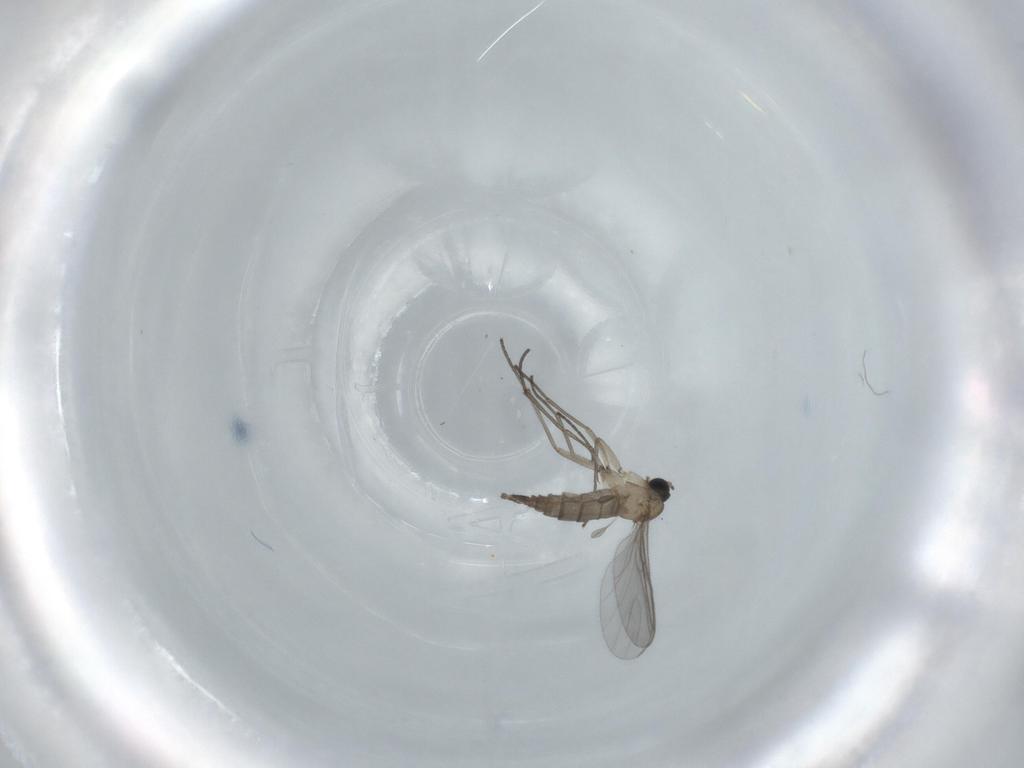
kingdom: Animalia
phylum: Arthropoda
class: Insecta
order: Diptera
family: Sciaridae
